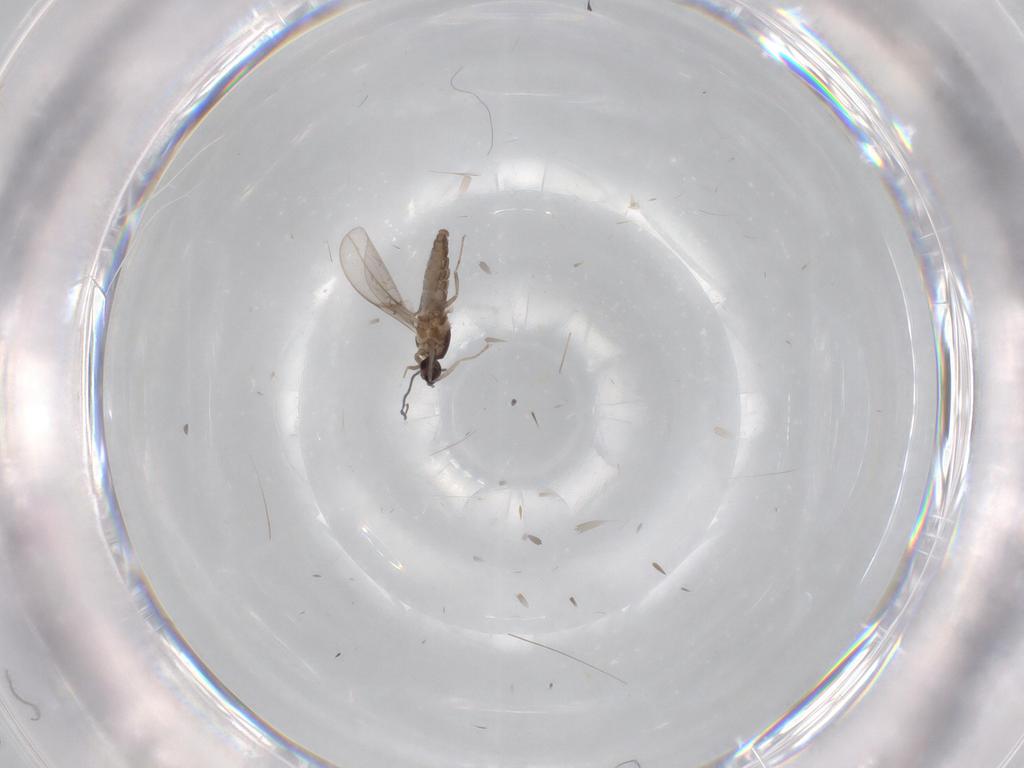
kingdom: Animalia
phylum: Arthropoda
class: Insecta
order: Diptera
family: Cecidomyiidae
